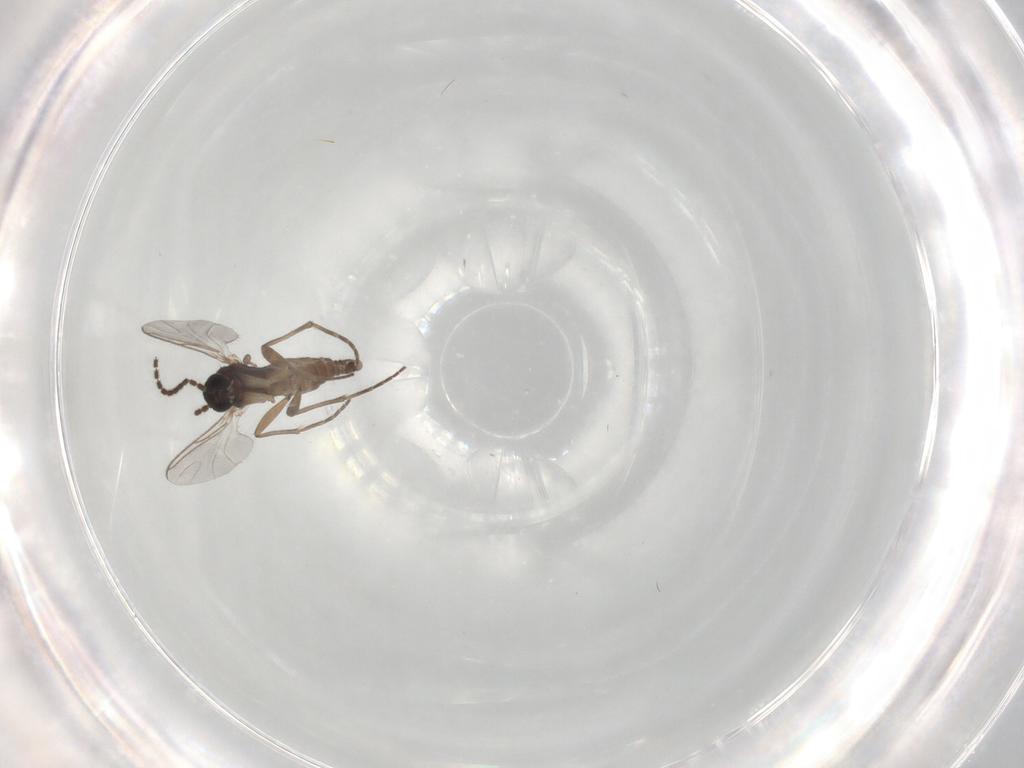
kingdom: Animalia
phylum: Arthropoda
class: Insecta
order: Diptera
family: Sciaridae
